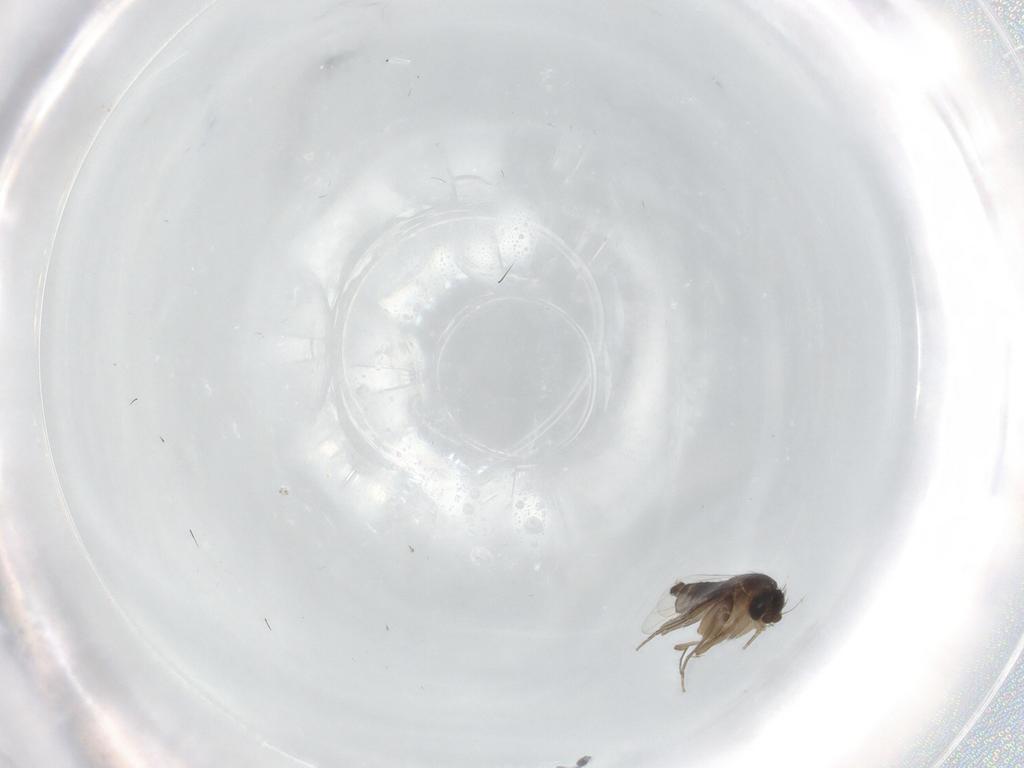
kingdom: Animalia
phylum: Arthropoda
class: Insecta
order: Diptera
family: Phoridae
